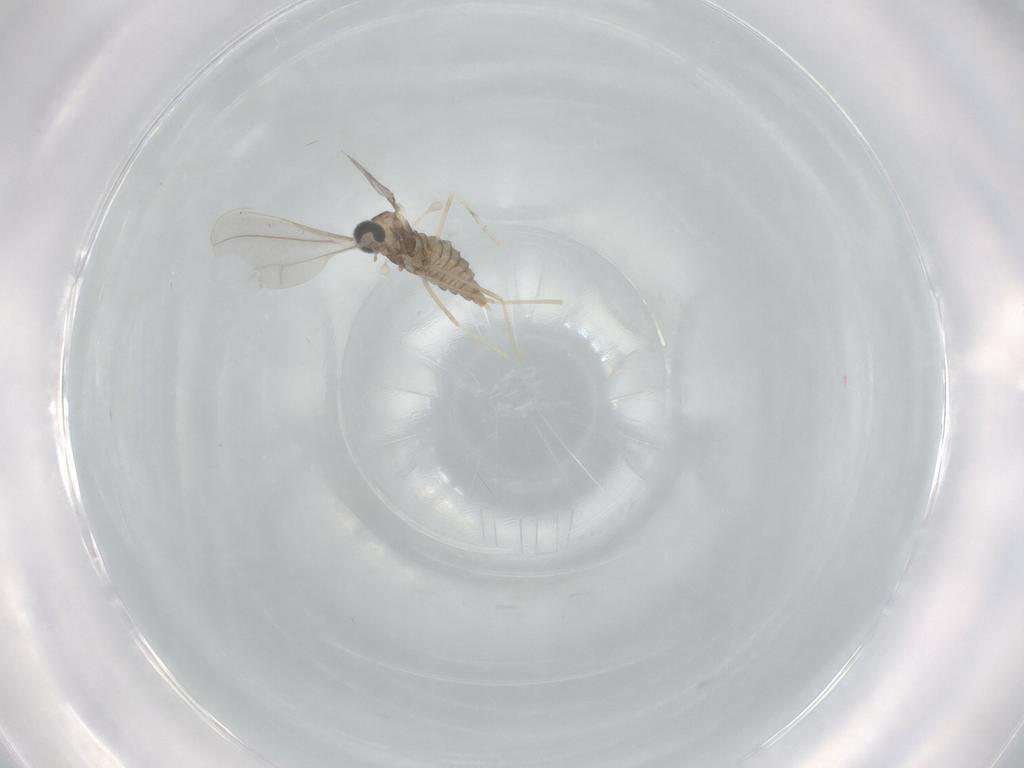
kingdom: Animalia
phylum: Arthropoda
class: Insecta
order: Diptera
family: Cecidomyiidae
